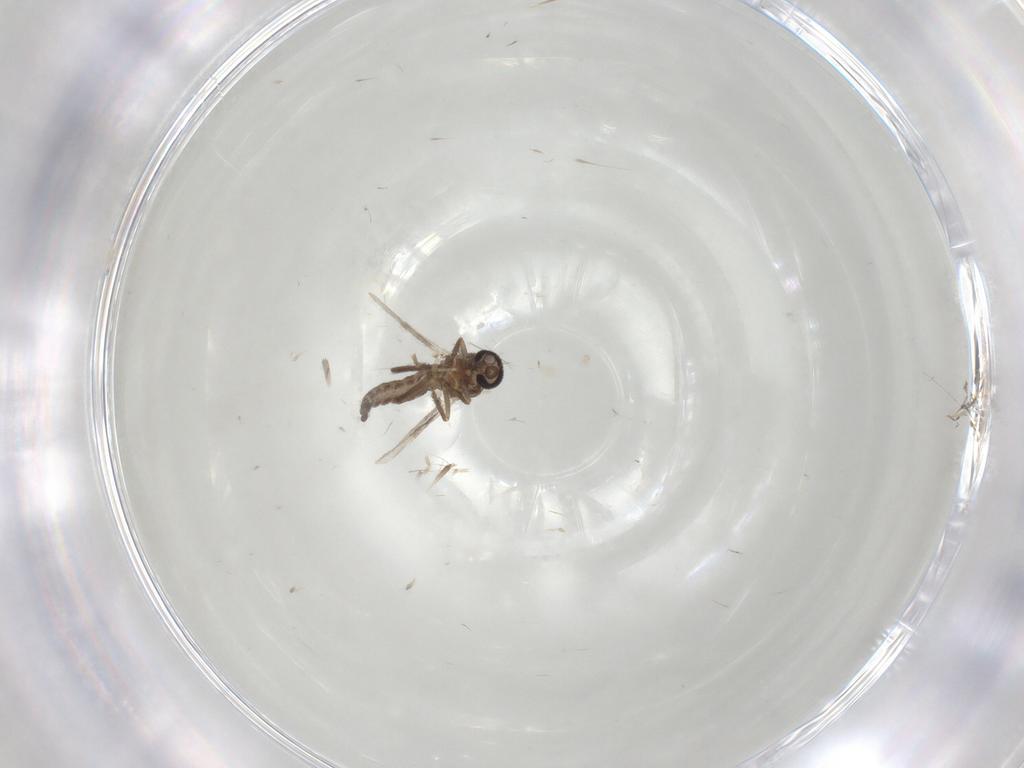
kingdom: Animalia
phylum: Arthropoda
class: Insecta
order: Diptera
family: Ceratopogonidae
